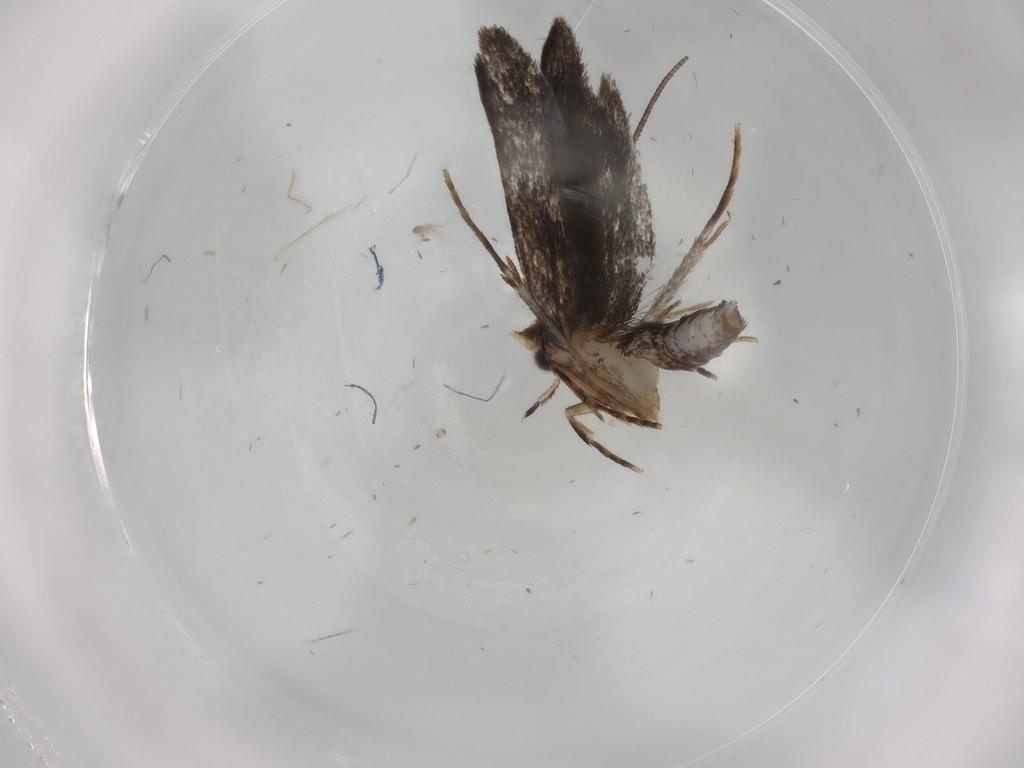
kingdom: Animalia
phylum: Arthropoda
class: Insecta
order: Lepidoptera
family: Nepticulidae
